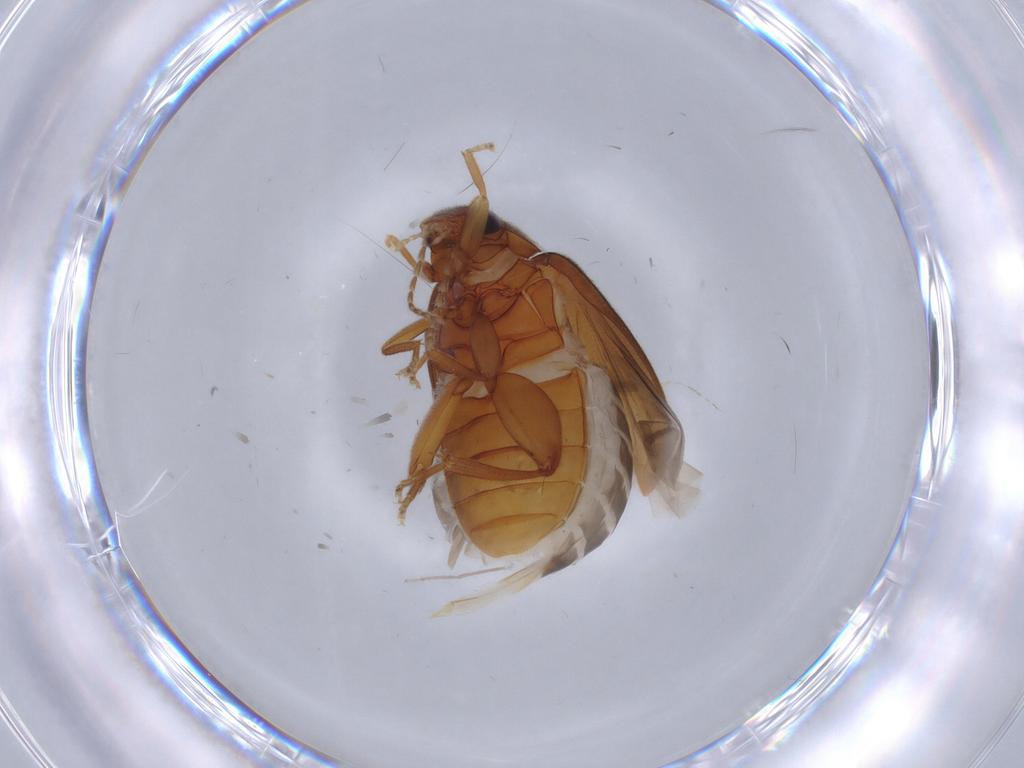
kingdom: Animalia
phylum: Arthropoda
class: Insecta
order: Coleoptera
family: Scirtidae
